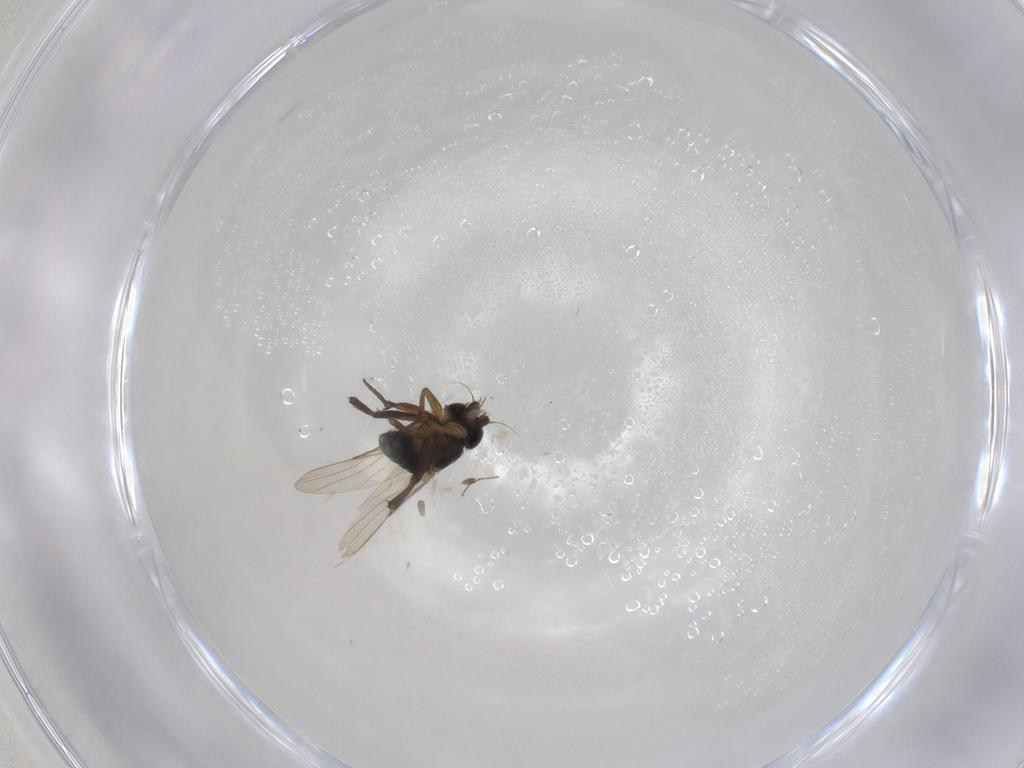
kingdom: Animalia
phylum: Arthropoda
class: Insecta
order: Diptera
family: Phoridae
